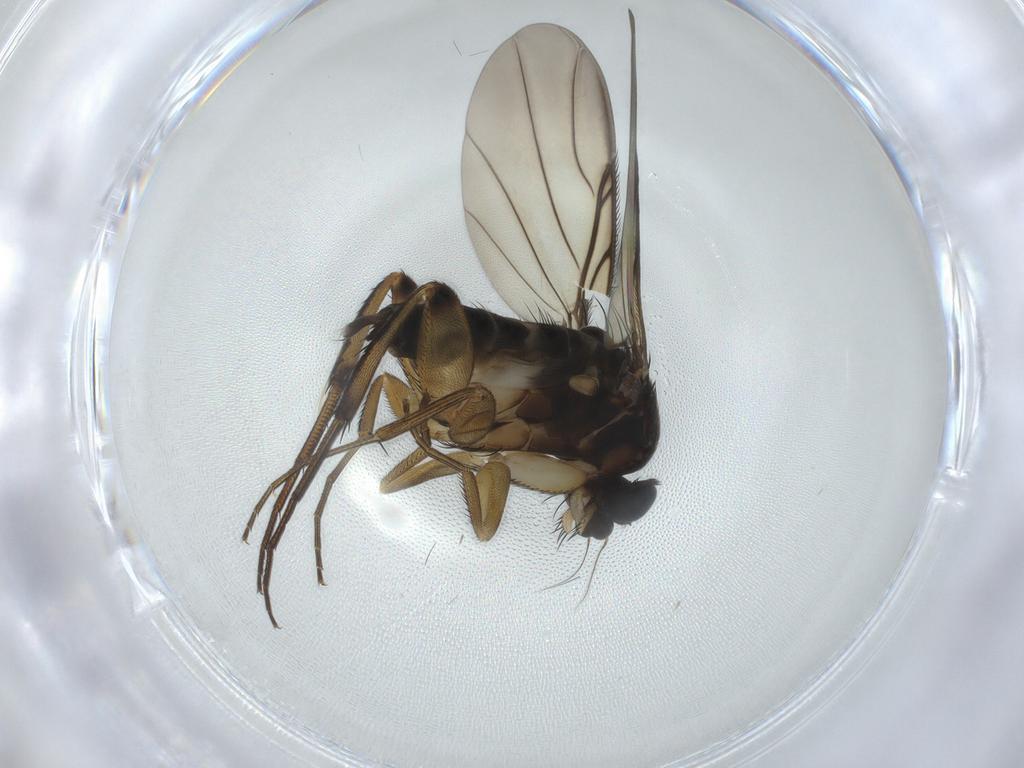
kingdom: Animalia
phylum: Arthropoda
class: Insecta
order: Diptera
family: Phoridae
